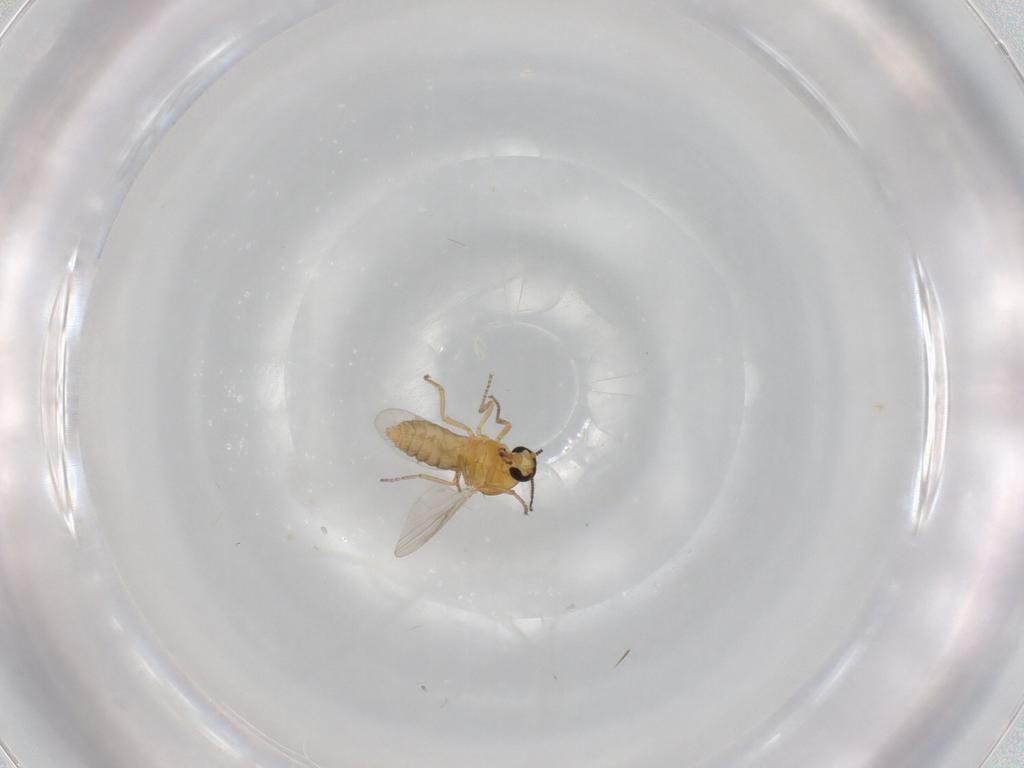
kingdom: Animalia
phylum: Arthropoda
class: Insecta
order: Diptera
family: Ceratopogonidae
